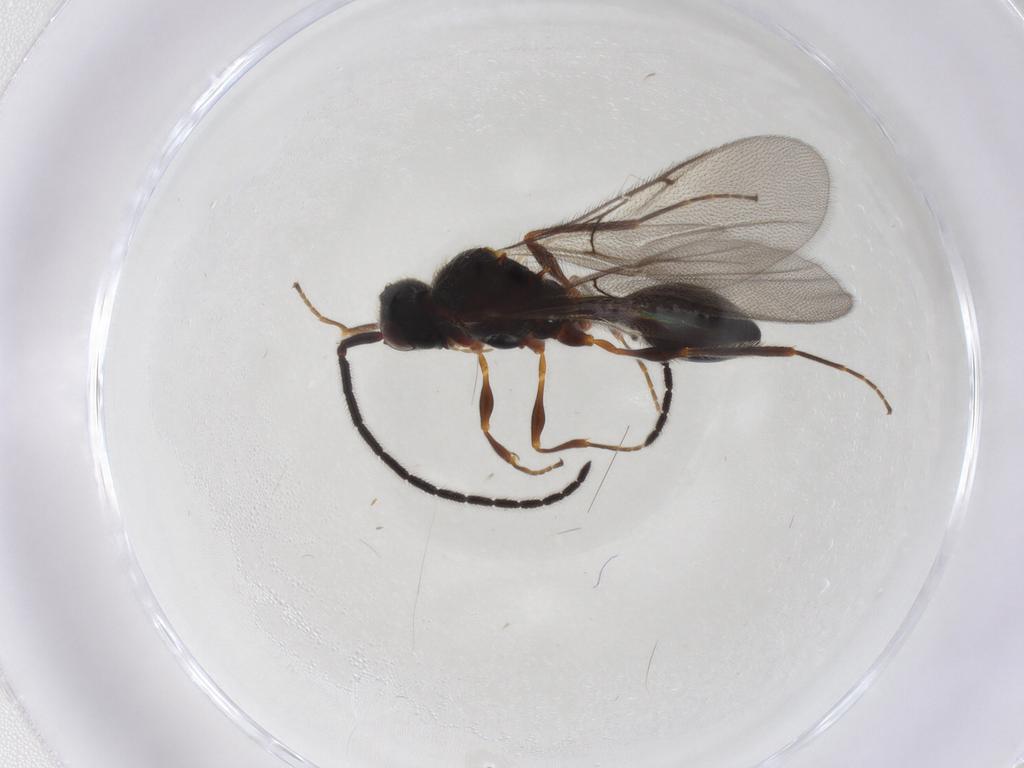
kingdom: Animalia
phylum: Arthropoda
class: Insecta
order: Hymenoptera
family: Diapriidae
